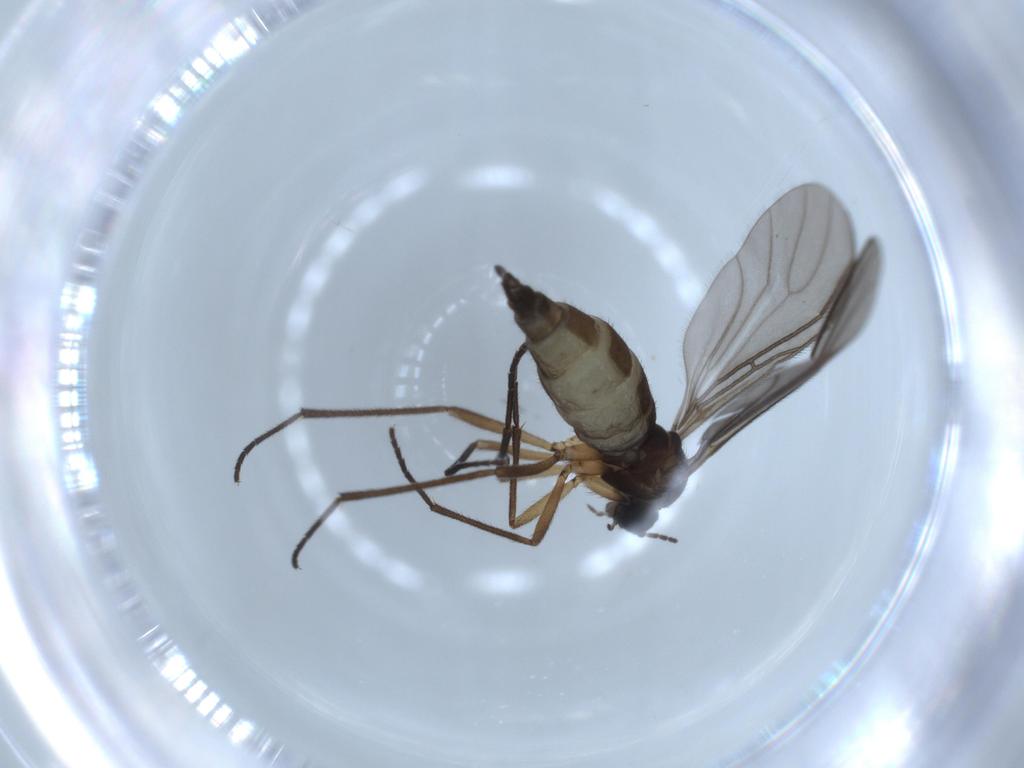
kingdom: Animalia
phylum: Arthropoda
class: Insecta
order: Diptera
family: Sciaridae
